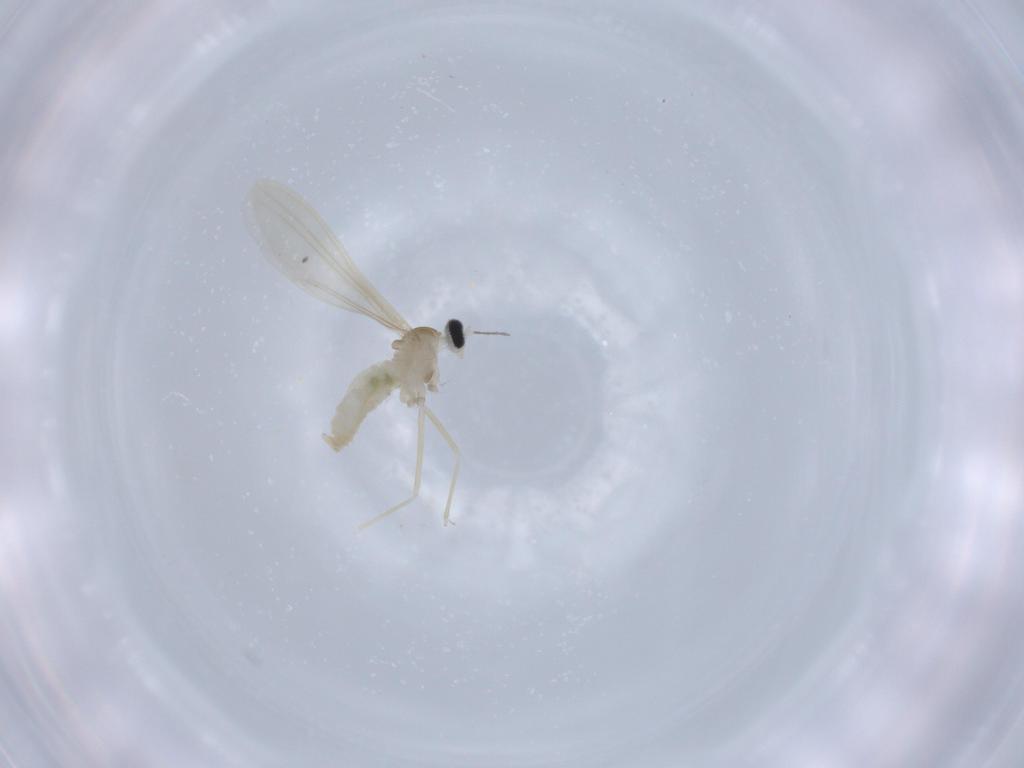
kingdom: Animalia
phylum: Arthropoda
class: Insecta
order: Diptera
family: Cecidomyiidae
